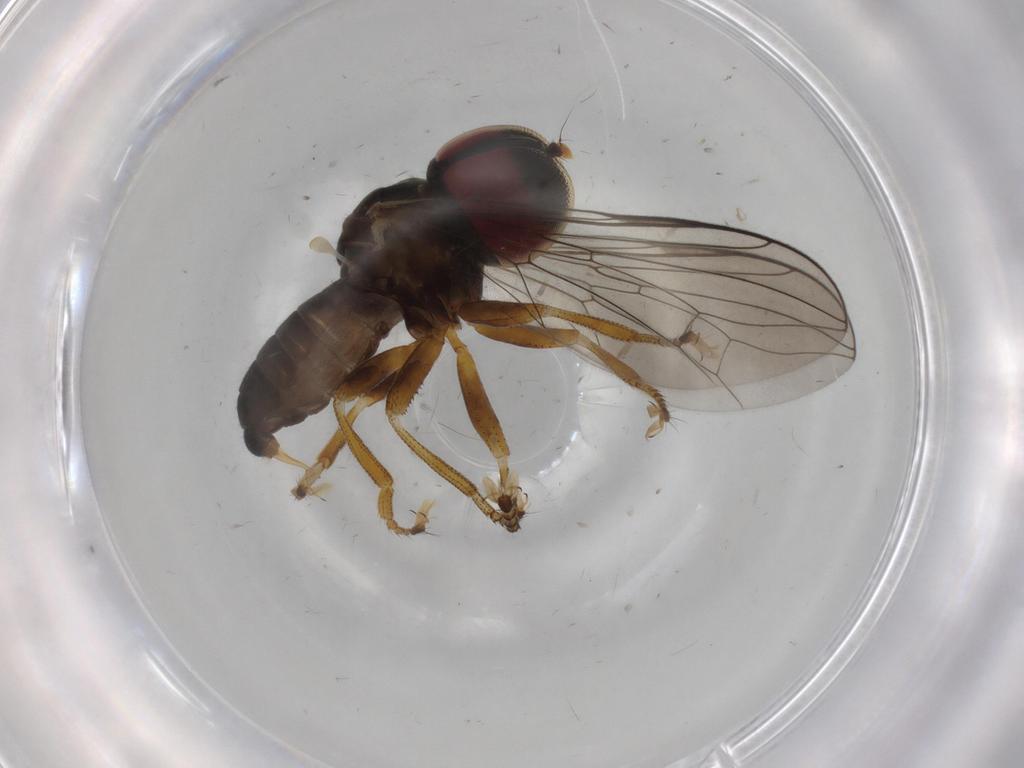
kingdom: Animalia
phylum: Arthropoda
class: Insecta
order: Diptera
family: Pipunculidae
